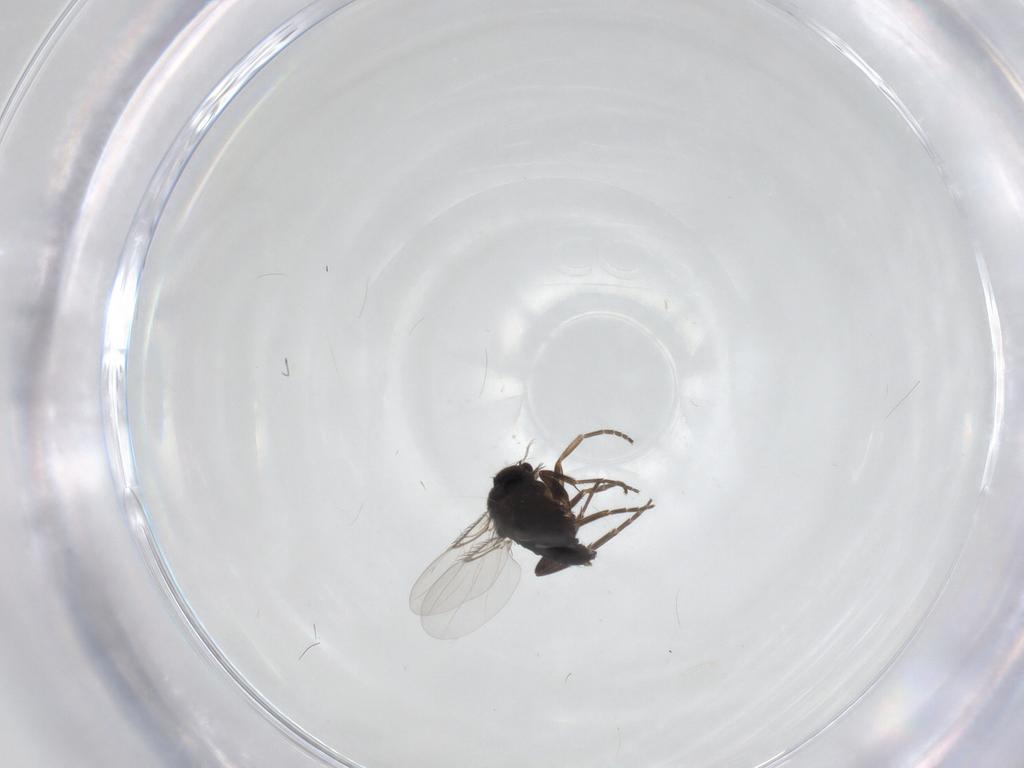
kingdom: Animalia
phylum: Arthropoda
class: Insecta
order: Diptera
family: Phoridae
